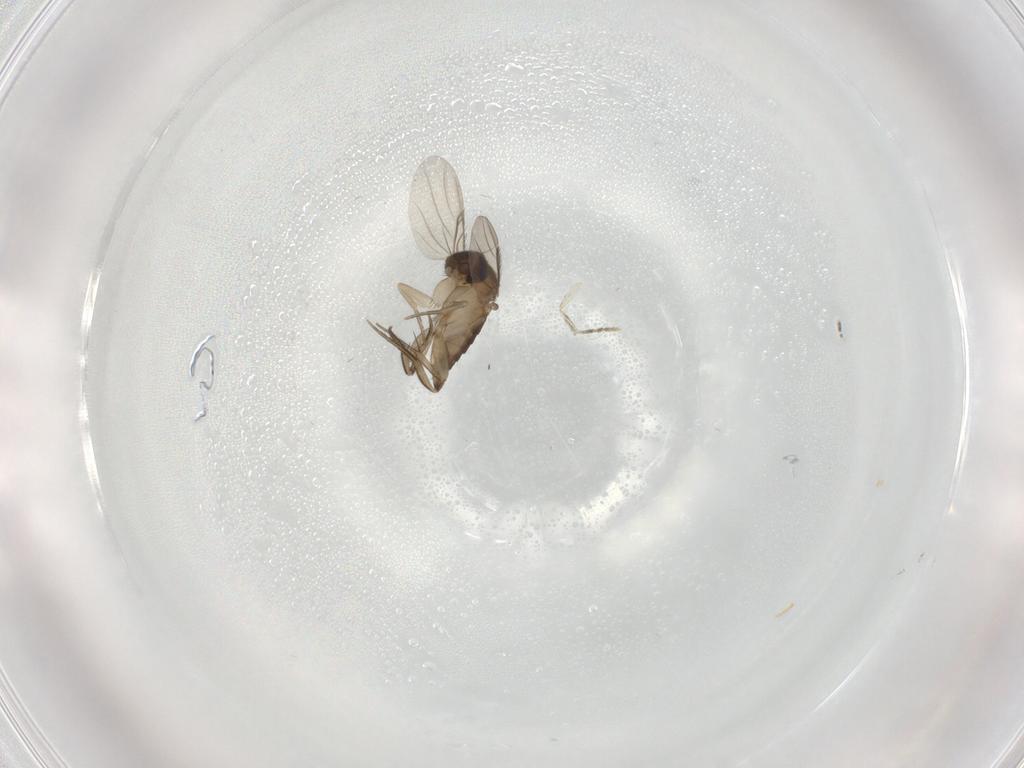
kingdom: Animalia
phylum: Arthropoda
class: Insecta
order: Diptera
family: Phoridae
